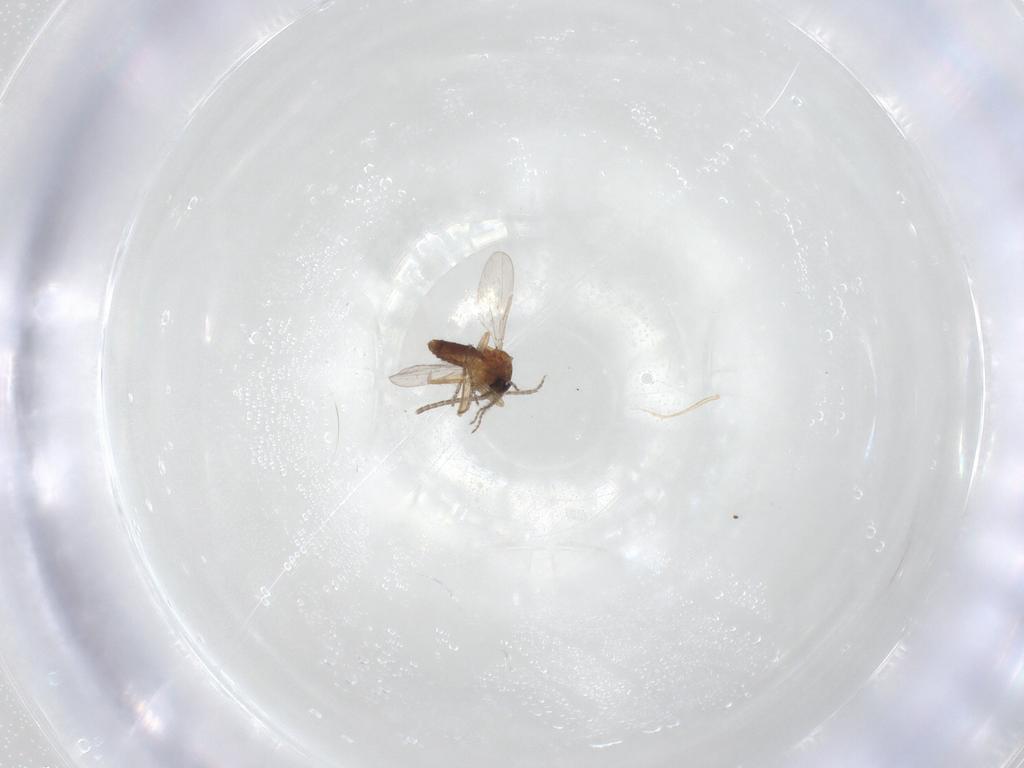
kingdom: Animalia
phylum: Arthropoda
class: Insecta
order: Diptera
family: Ceratopogonidae
